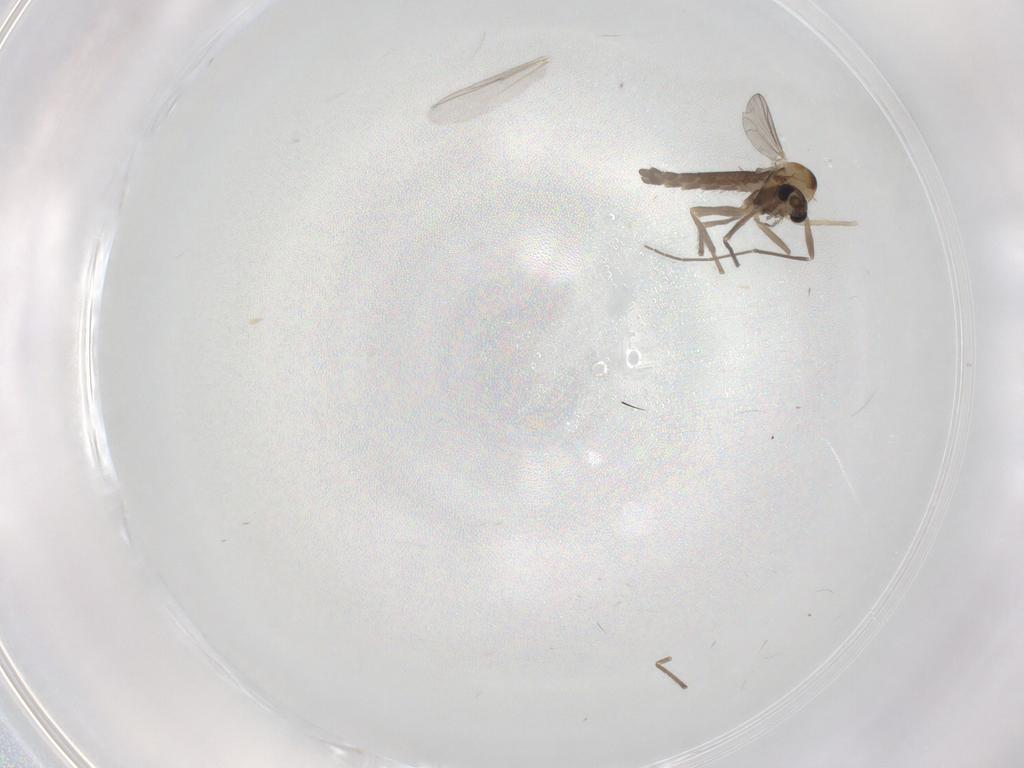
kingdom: Animalia
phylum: Arthropoda
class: Insecta
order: Diptera
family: Chironomidae
